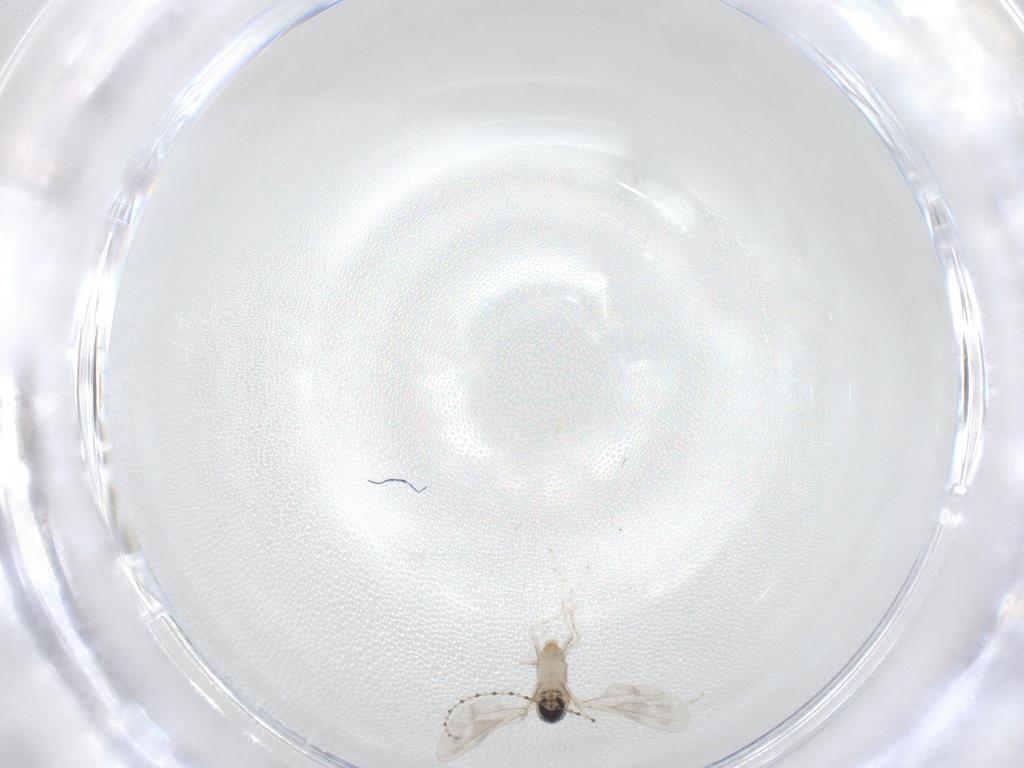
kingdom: Animalia
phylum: Arthropoda
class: Insecta
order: Diptera
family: Cecidomyiidae
